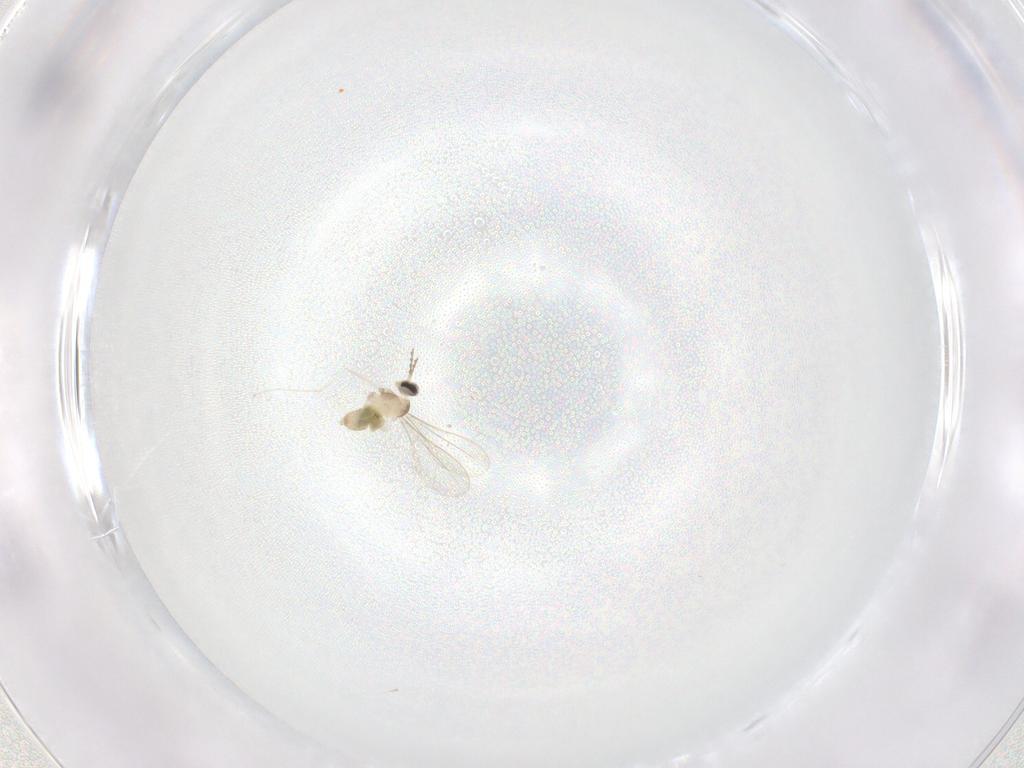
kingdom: Animalia
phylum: Arthropoda
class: Insecta
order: Diptera
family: Cecidomyiidae
